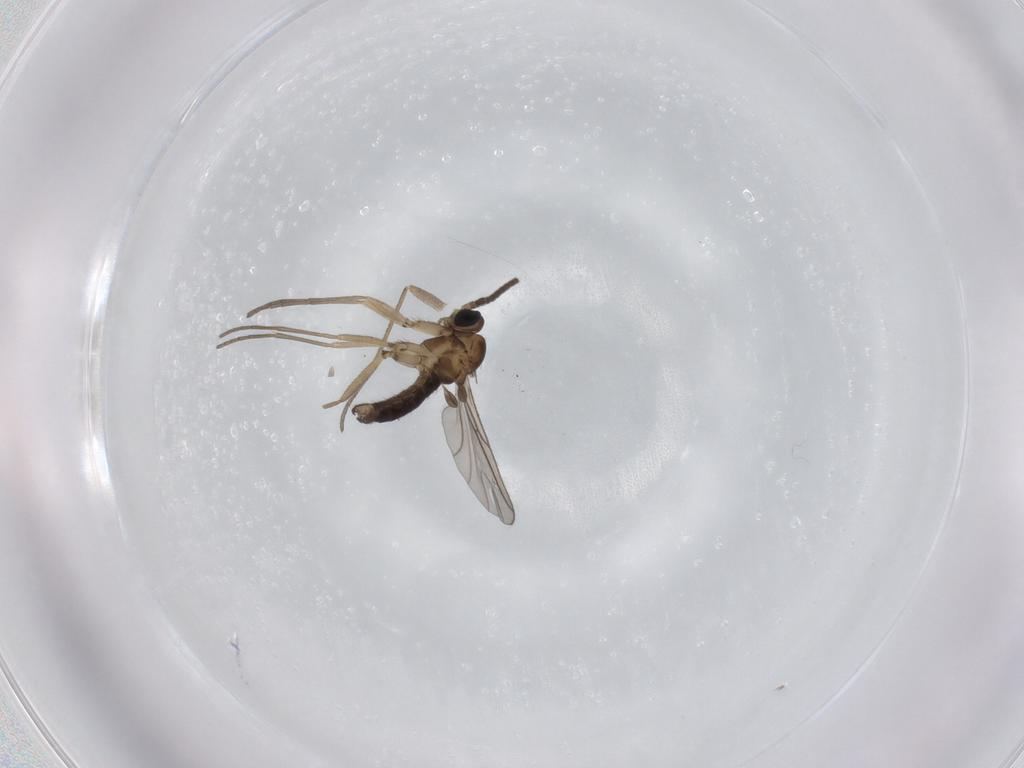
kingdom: Animalia
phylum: Arthropoda
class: Insecta
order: Diptera
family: Sciaridae
